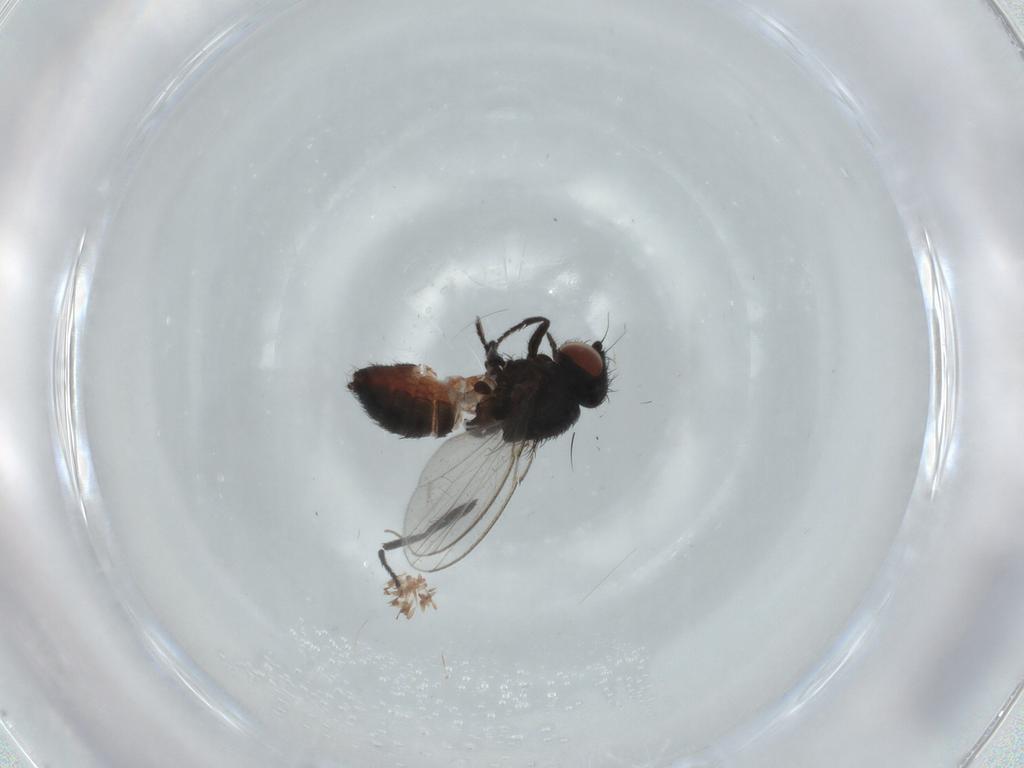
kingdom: Animalia
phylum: Arthropoda
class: Insecta
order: Diptera
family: Milichiidae
